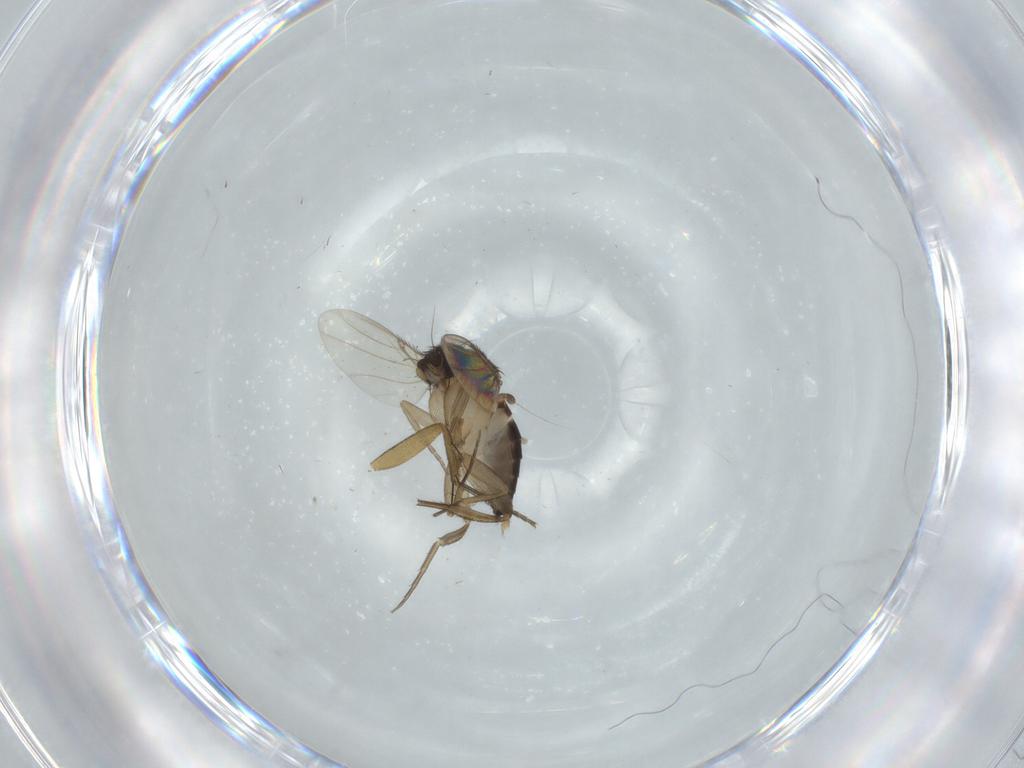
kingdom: Animalia
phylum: Arthropoda
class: Insecta
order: Diptera
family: Phoridae
